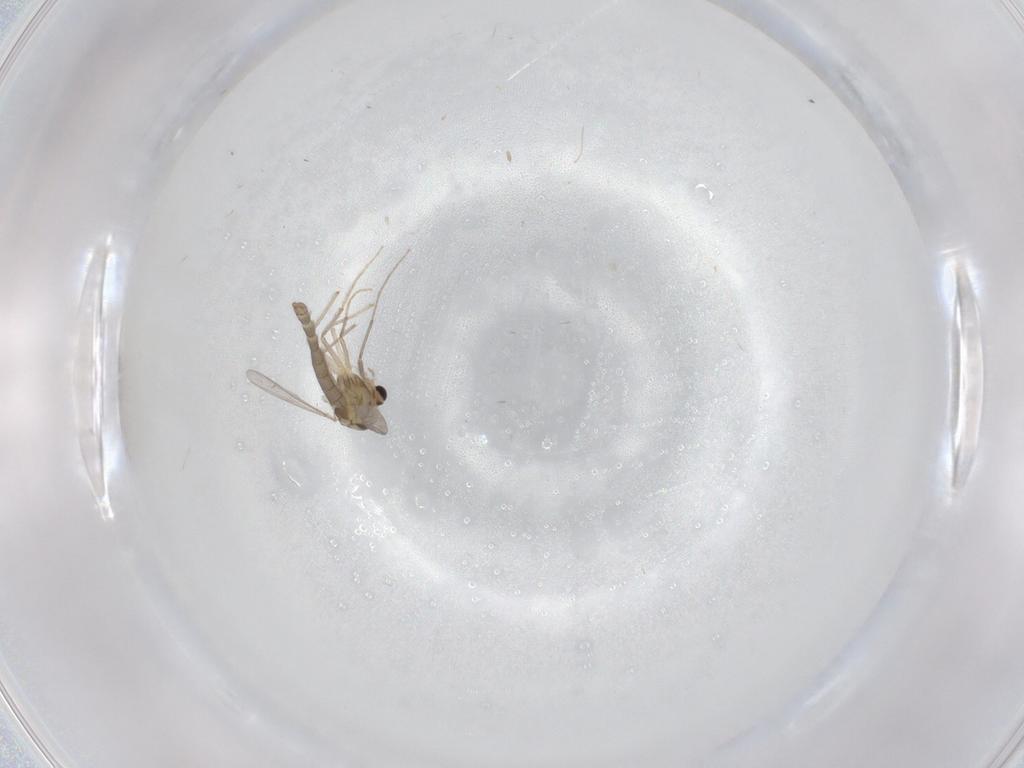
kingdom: Animalia
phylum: Arthropoda
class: Insecta
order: Diptera
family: Chironomidae
